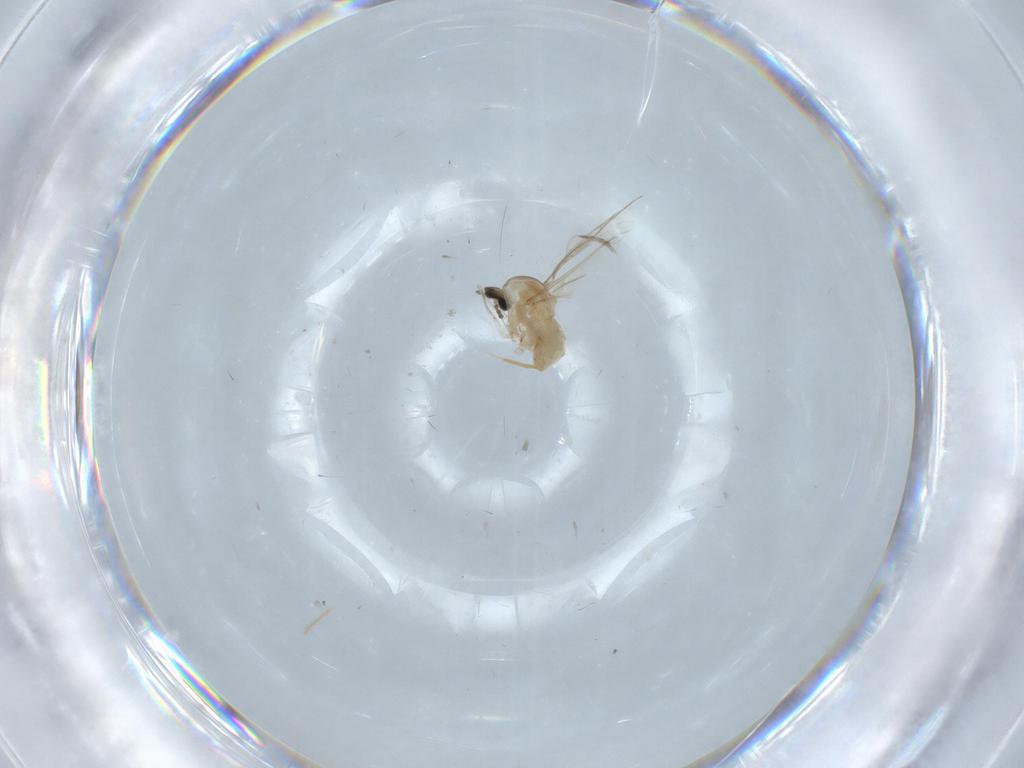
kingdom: Animalia
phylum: Arthropoda
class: Insecta
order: Diptera
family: Cecidomyiidae
